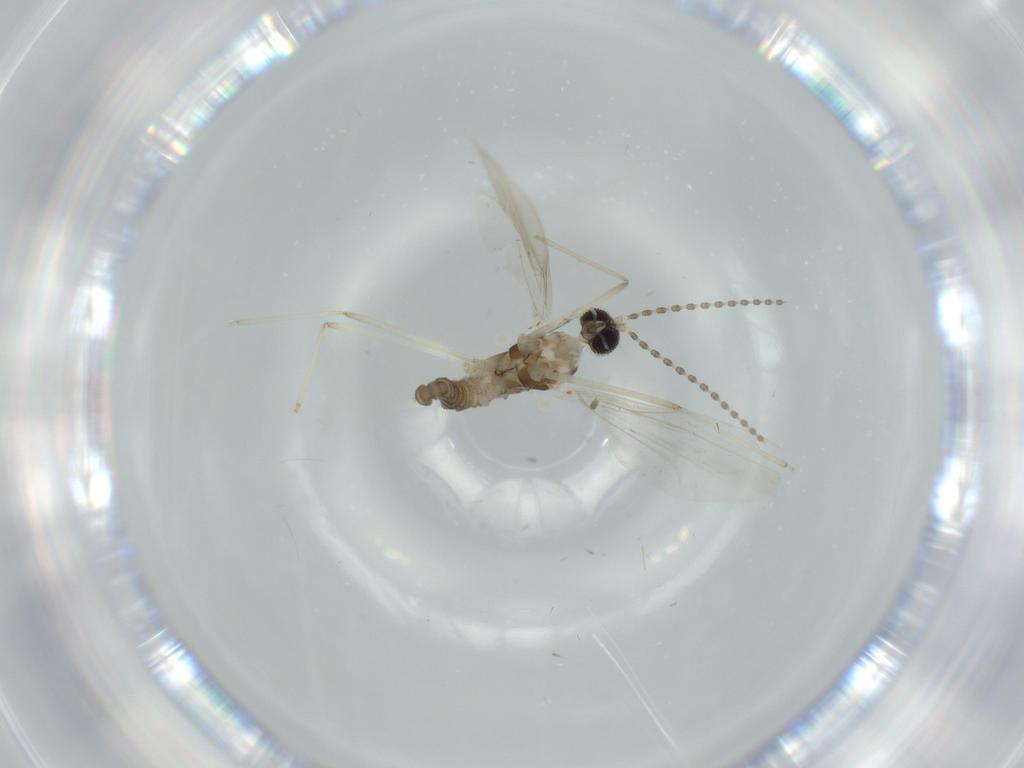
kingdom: Animalia
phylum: Arthropoda
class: Insecta
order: Diptera
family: Cecidomyiidae
